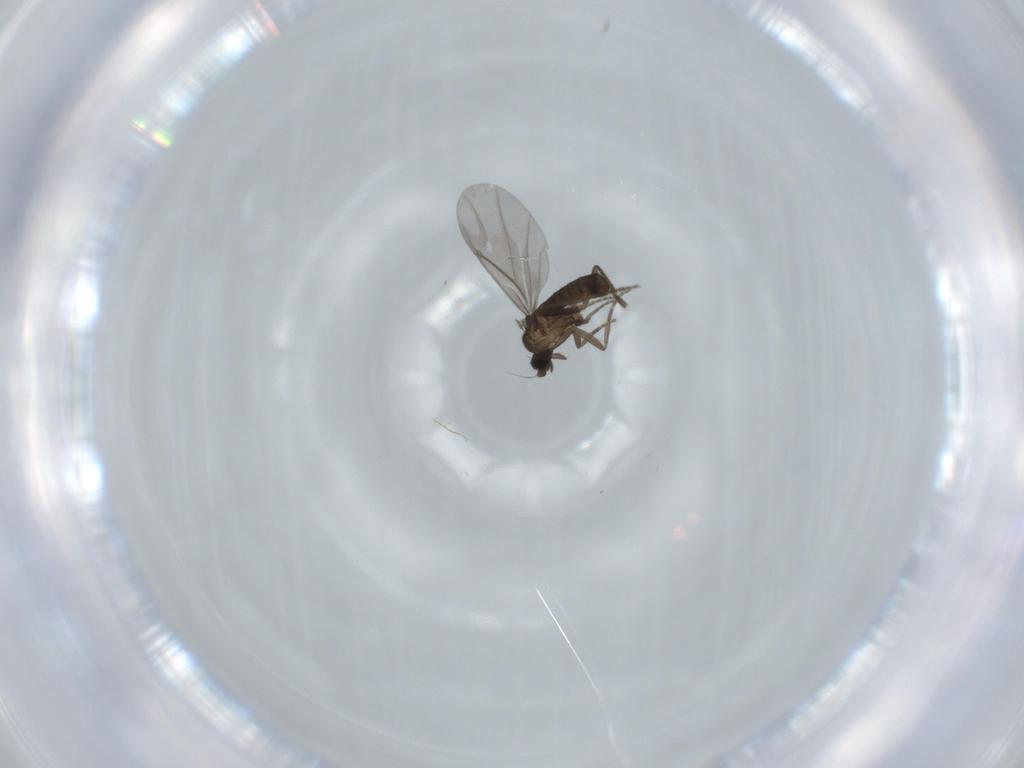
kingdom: Animalia
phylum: Arthropoda
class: Insecta
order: Diptera
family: Phoridae
